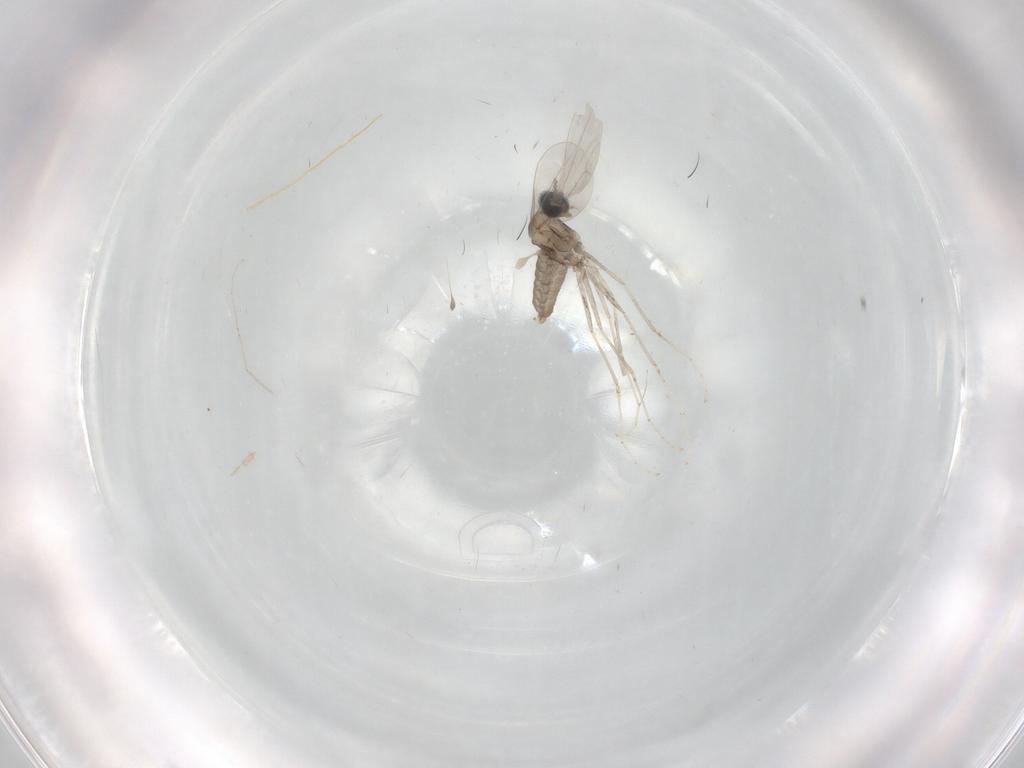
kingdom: Animalia
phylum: Arthropoda
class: Insecta
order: Diptera
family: Cecidomyiidae
